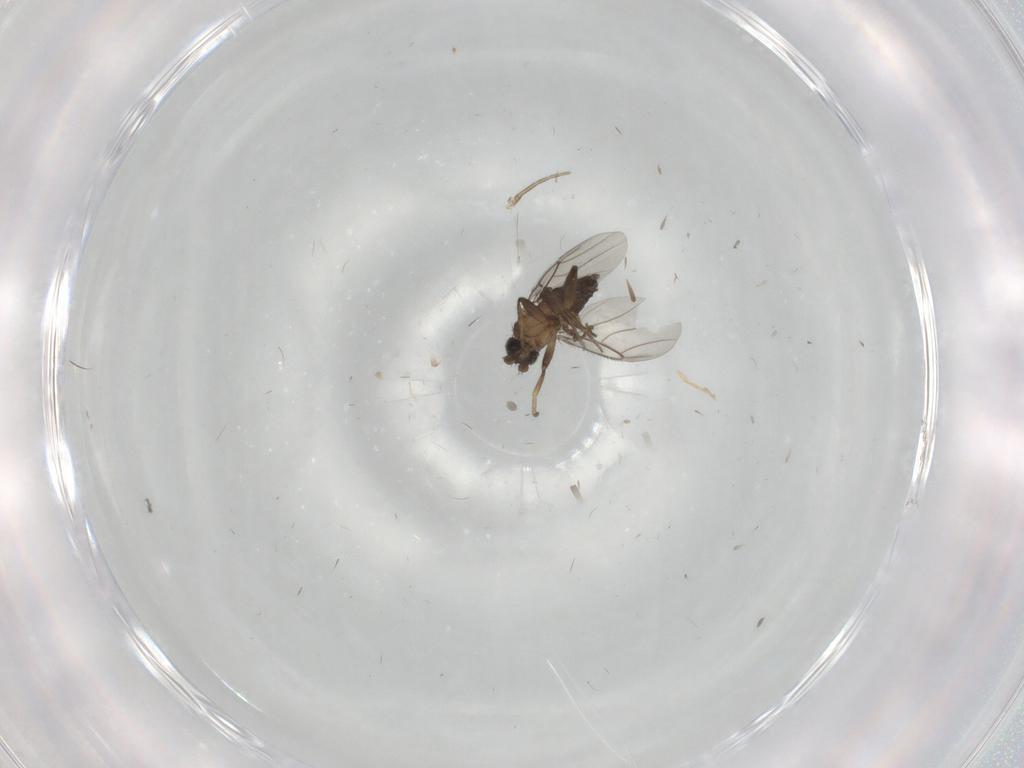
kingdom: Animalia
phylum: Arthropoda
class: Insecta
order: Diptera
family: Phoridae
